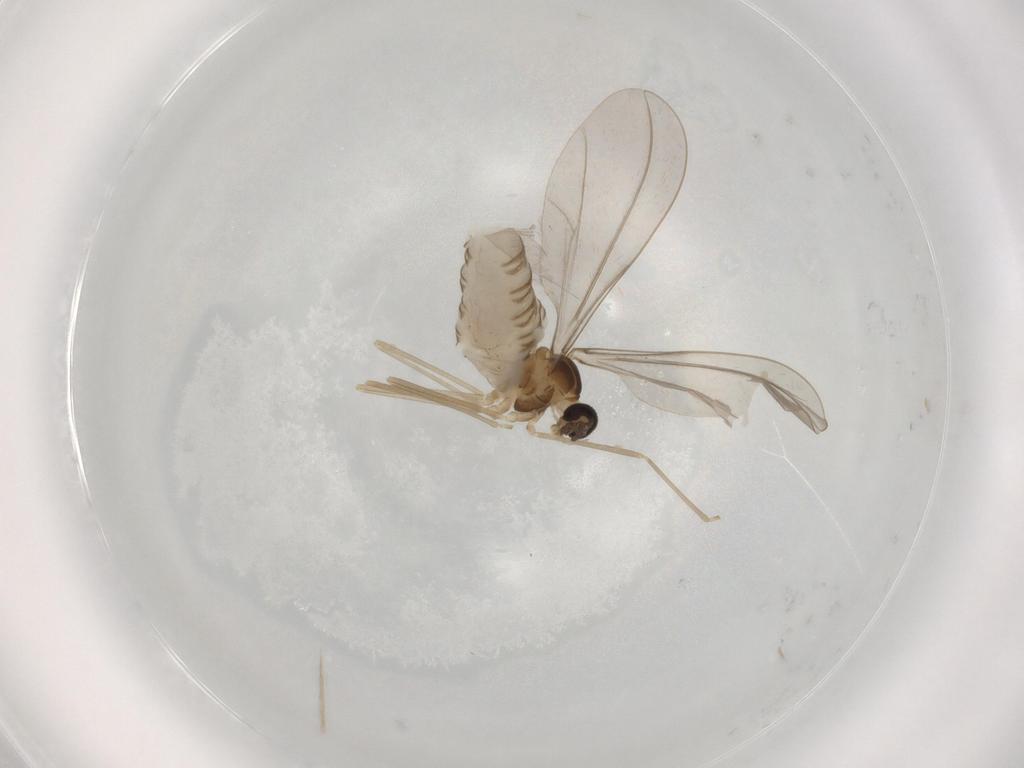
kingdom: Animalia
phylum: Arthropoda
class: Insecta
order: Diptera
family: Cecidomyiidae
